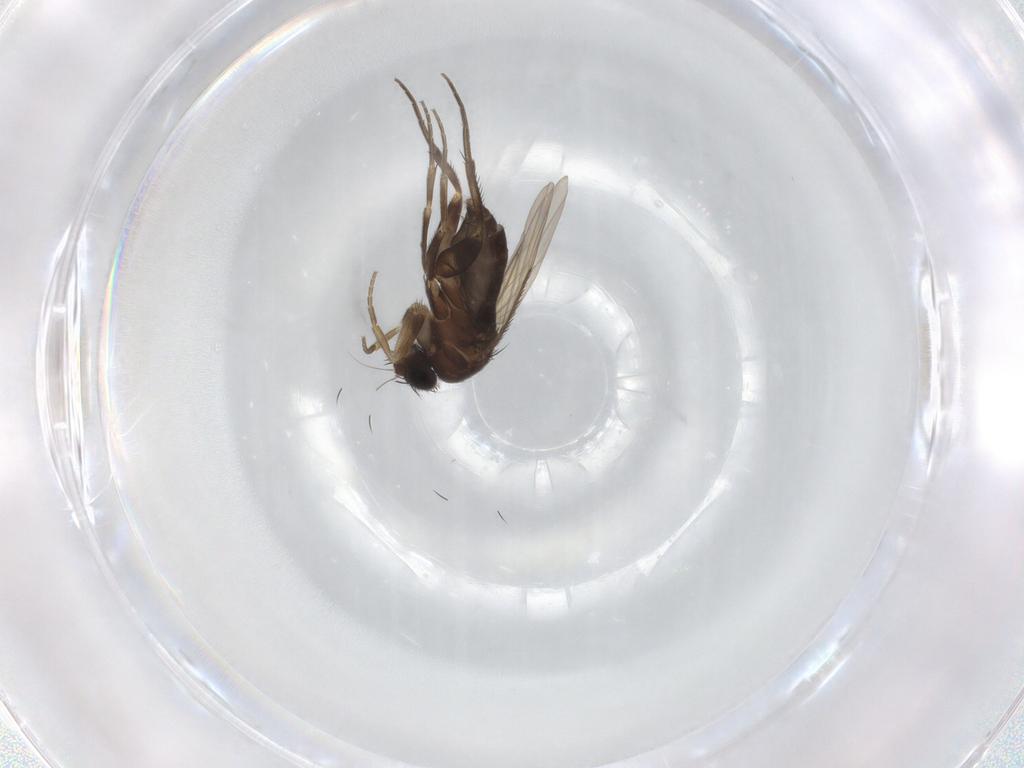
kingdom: Animalia
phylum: Arthropoda
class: Insecta
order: Diptera
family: Phoridae
